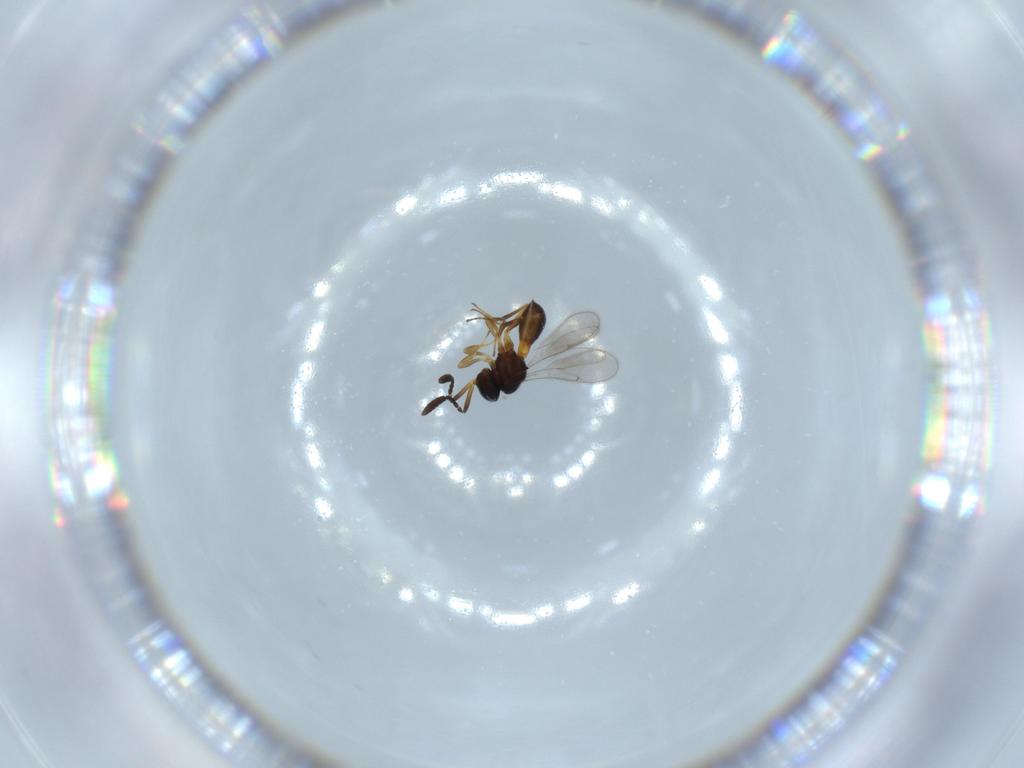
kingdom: Animalia
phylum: Arthropoda
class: Insecta
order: Hymenoptera
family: Scelionidae
